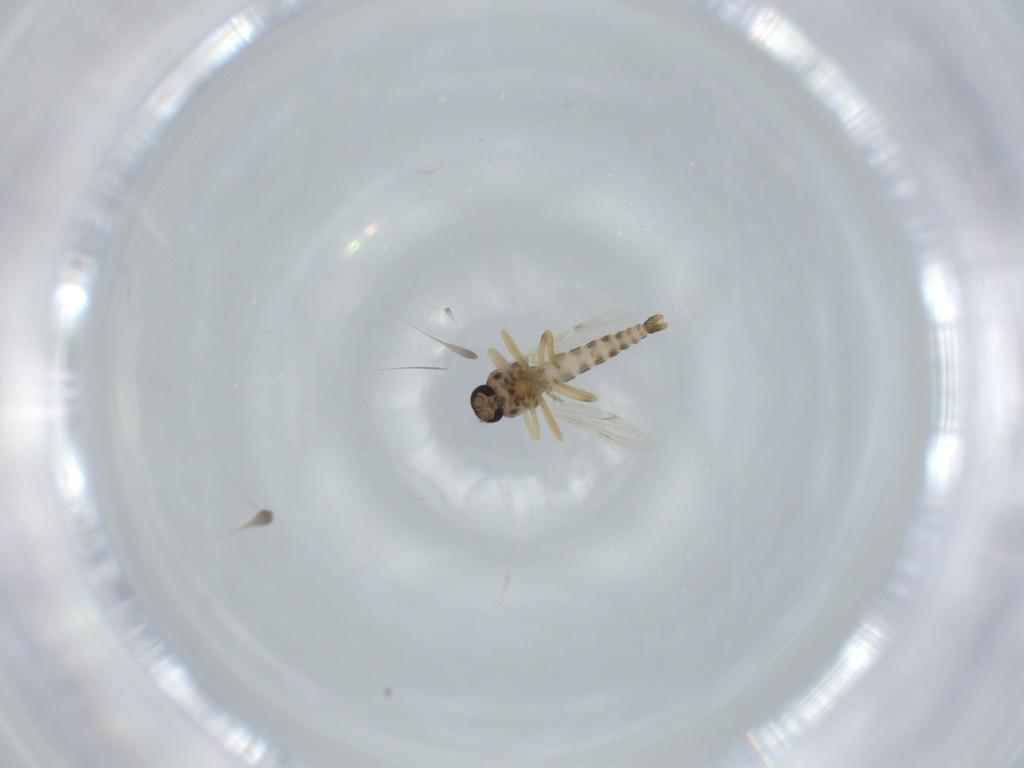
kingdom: Animalia
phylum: Arthropoda
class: Insecta
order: Diptera
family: Ceratopogonidae
